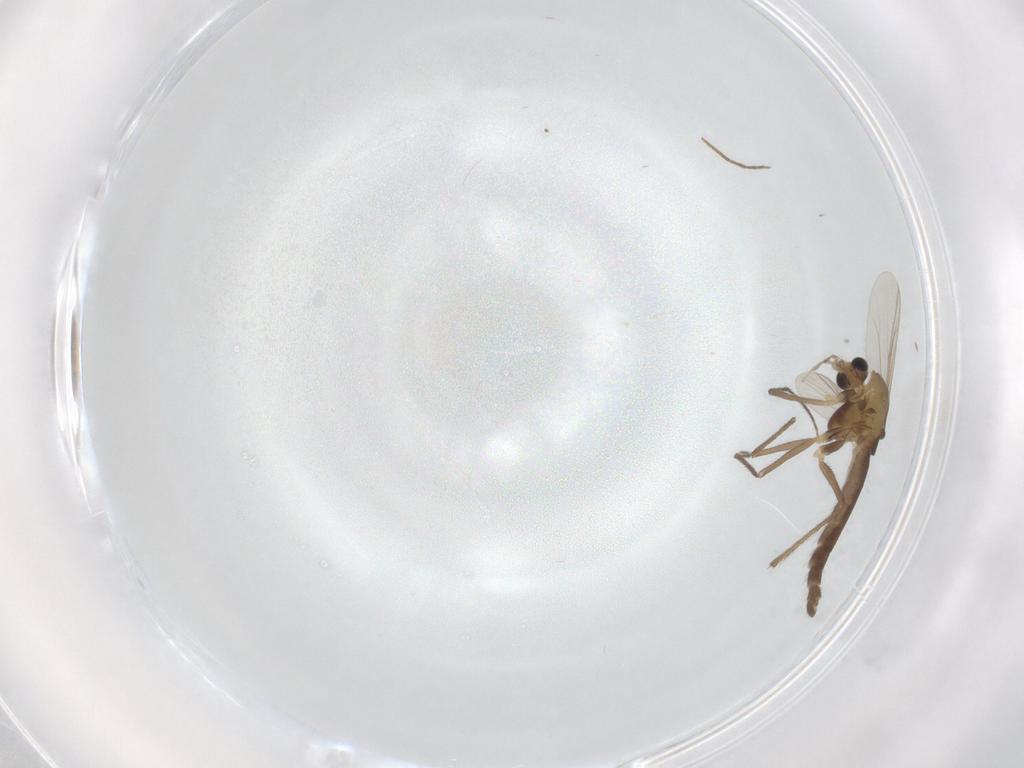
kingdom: Animalia
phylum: Arthropoda
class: Insecta
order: Diptera
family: Chironomidae
